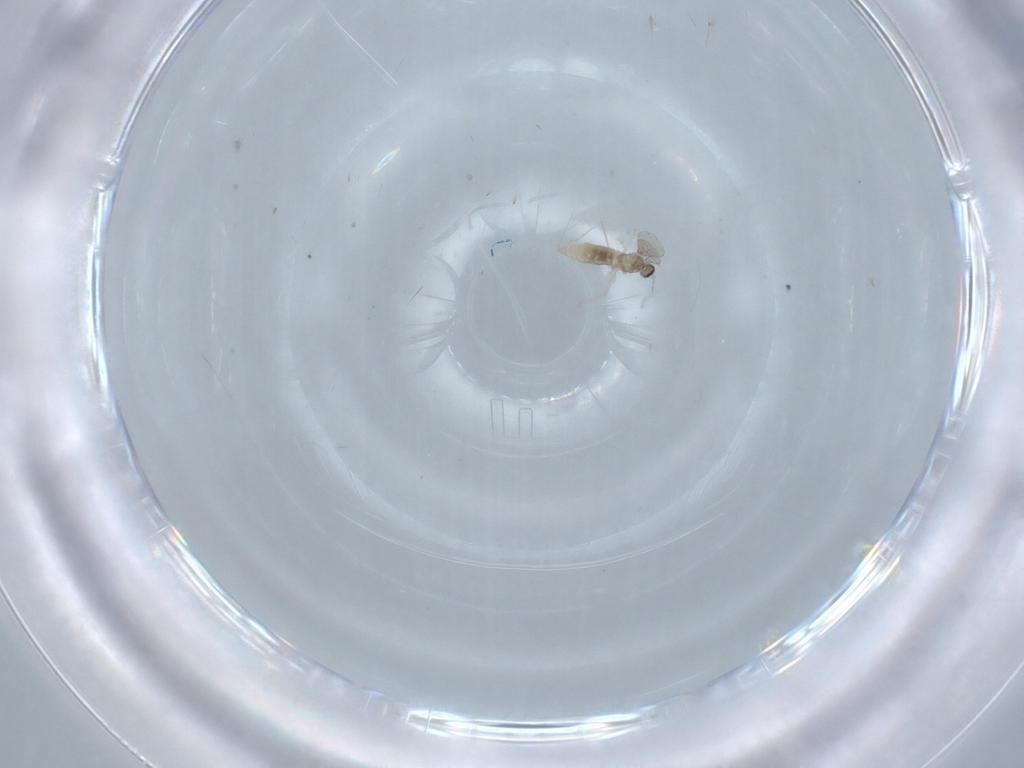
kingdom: Animalia
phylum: Arthropoda
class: Insecta
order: Diptera
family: Cecidomyiidae
